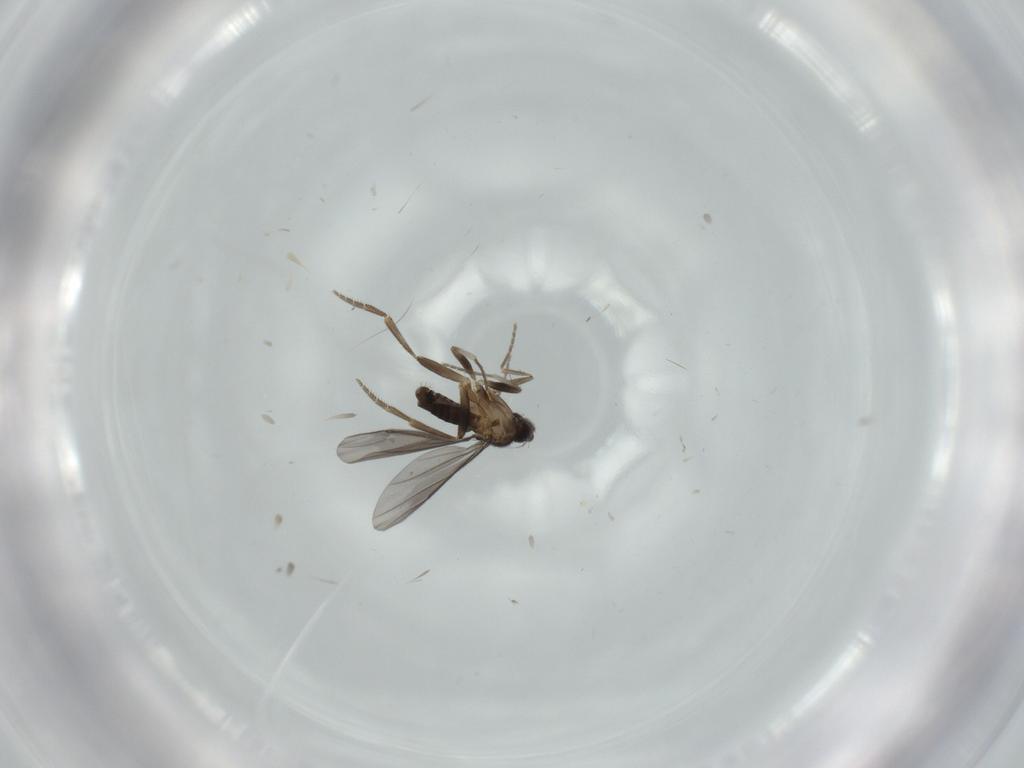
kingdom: Animalia
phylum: Arthropoda
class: Insecta
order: Diptera
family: Phoridae
